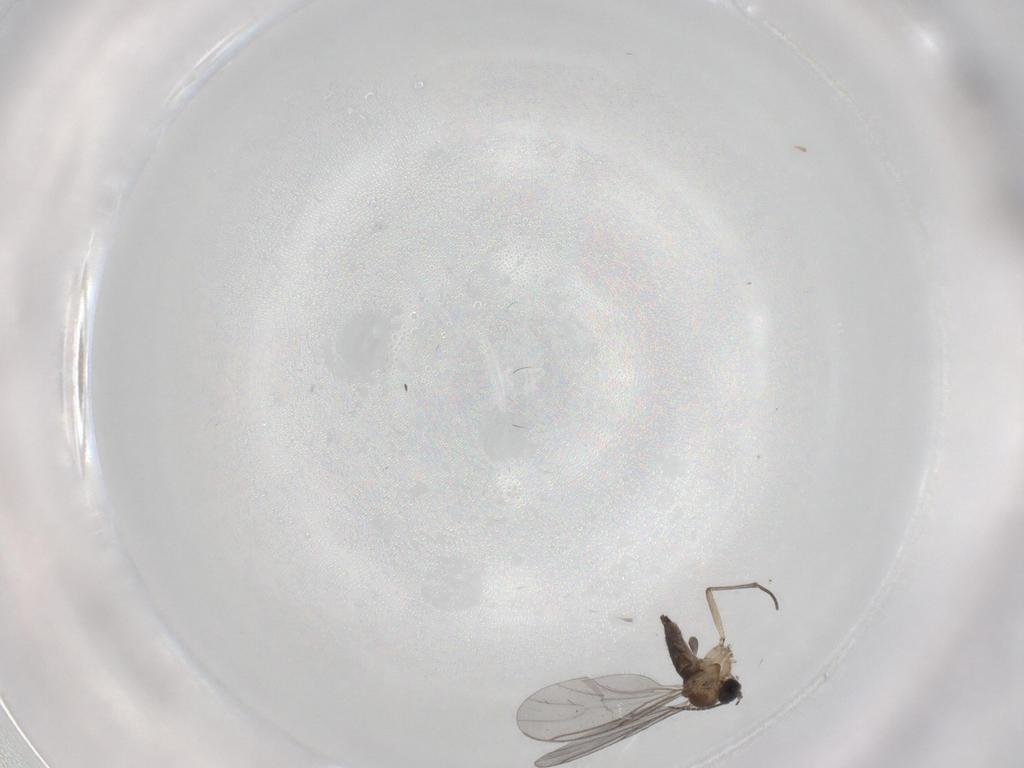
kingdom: Animalia
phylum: Arthropoda
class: Insecta
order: Diptera
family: Sciaridae
